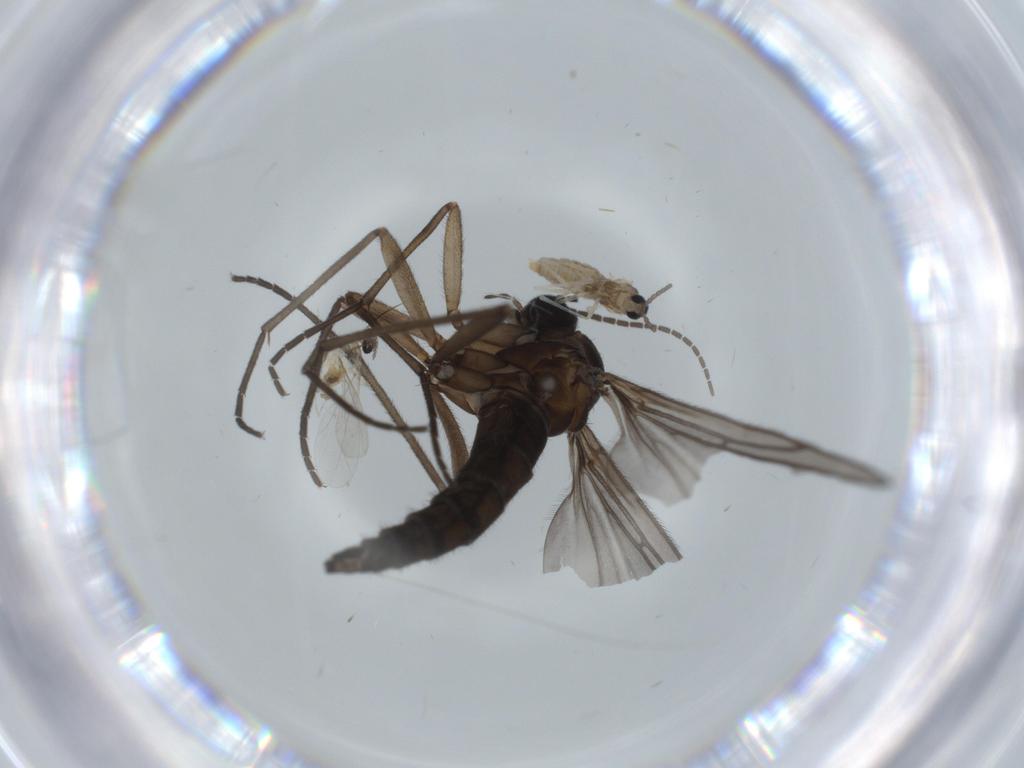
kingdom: Animalia
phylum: Arthropoda
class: Insecta
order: Diptera
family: Sciaridae
